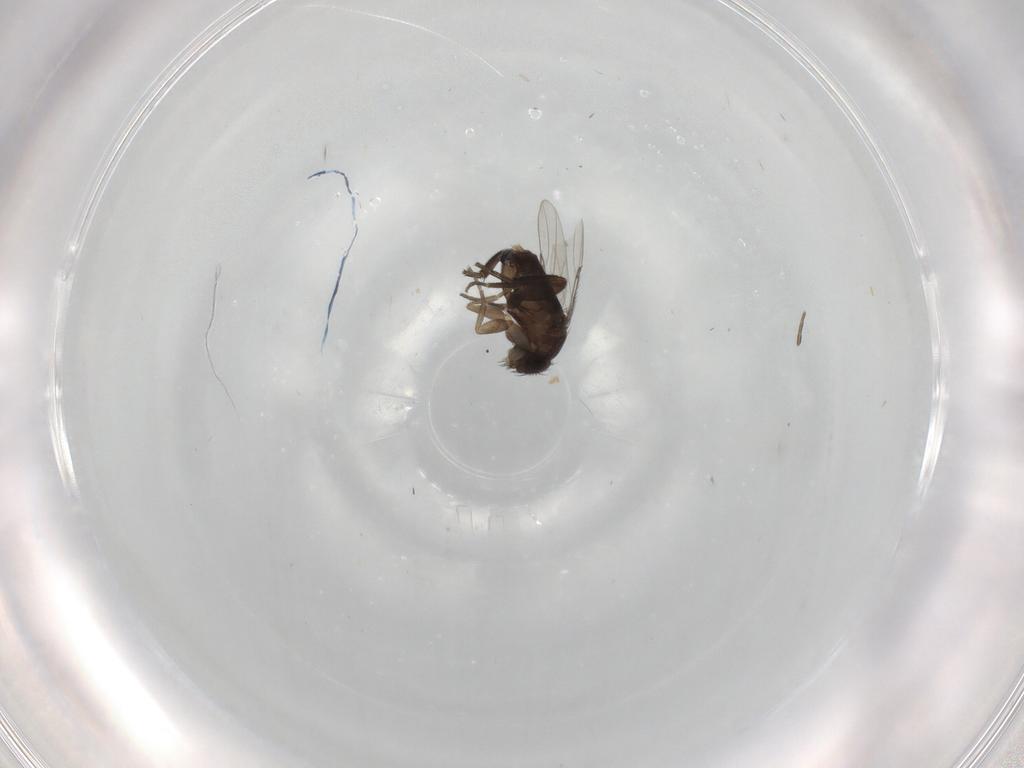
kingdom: Animalia
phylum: Arthropoda
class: Insecta
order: Diptera
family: Phoridae
